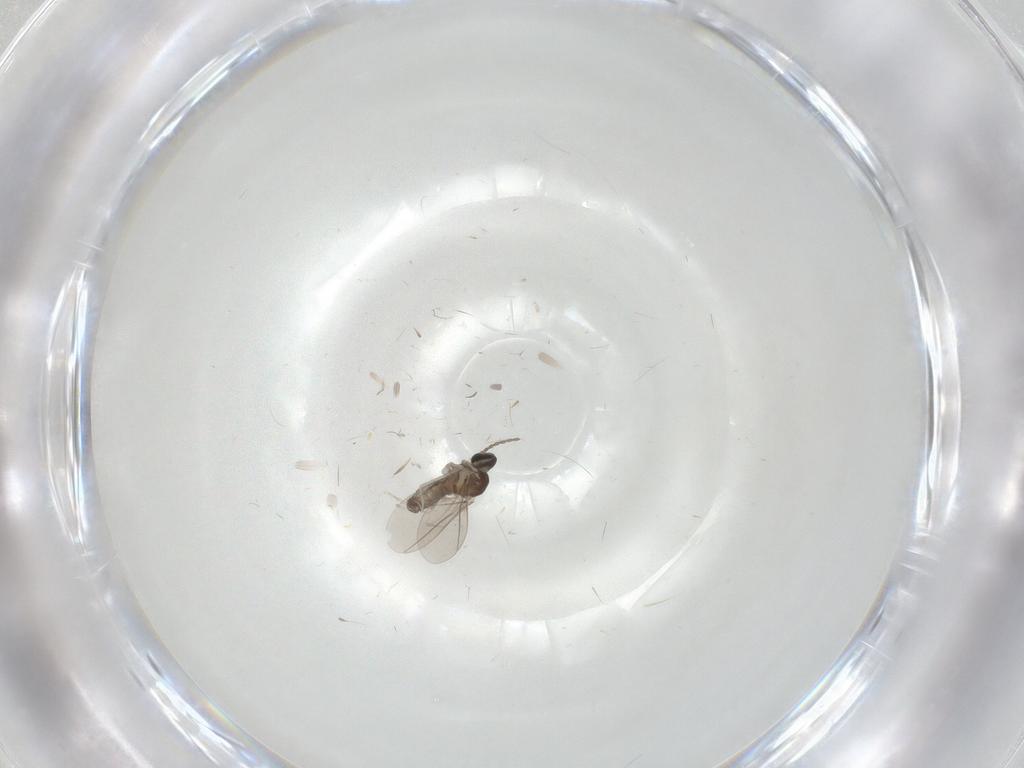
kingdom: Animalia
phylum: Arthropoda
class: Insecta
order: Diptera
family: Cecidomyiidae
